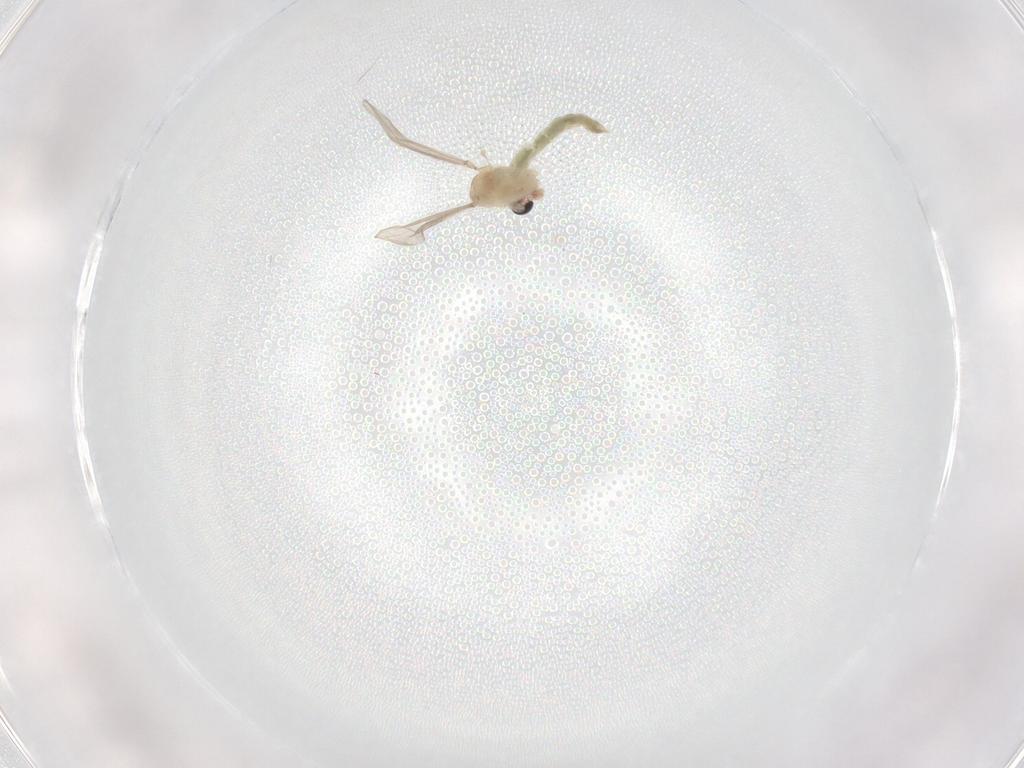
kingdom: Animalia
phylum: Arthropoda
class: Insecta
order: Diptera
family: Chironomidae
